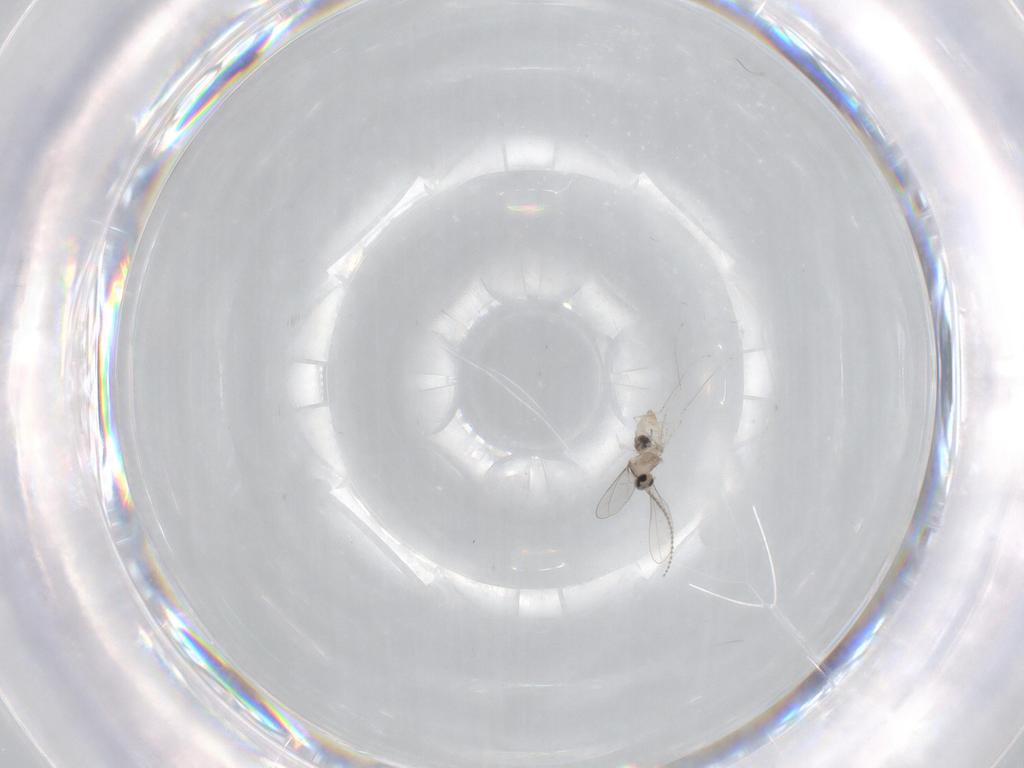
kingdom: Animalia
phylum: Arthropoda
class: Insecta
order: Diptera
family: Cecidomyiidae
